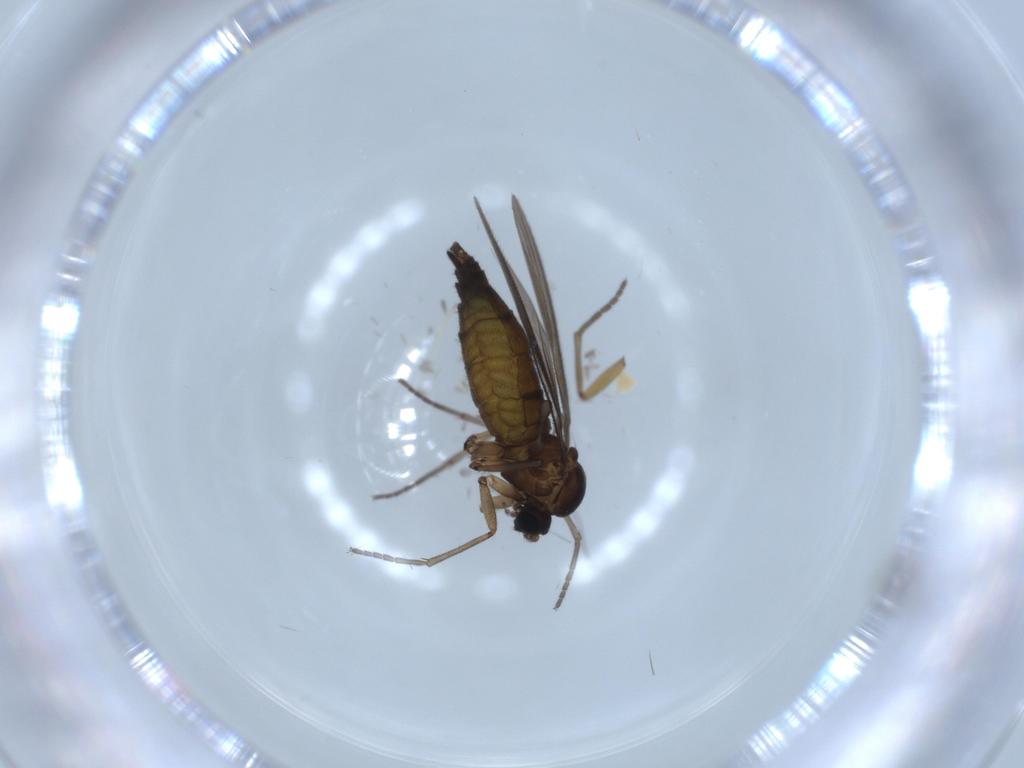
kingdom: Animalia
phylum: Arthropoda
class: Insecta
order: Diptera
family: Sciaridae
